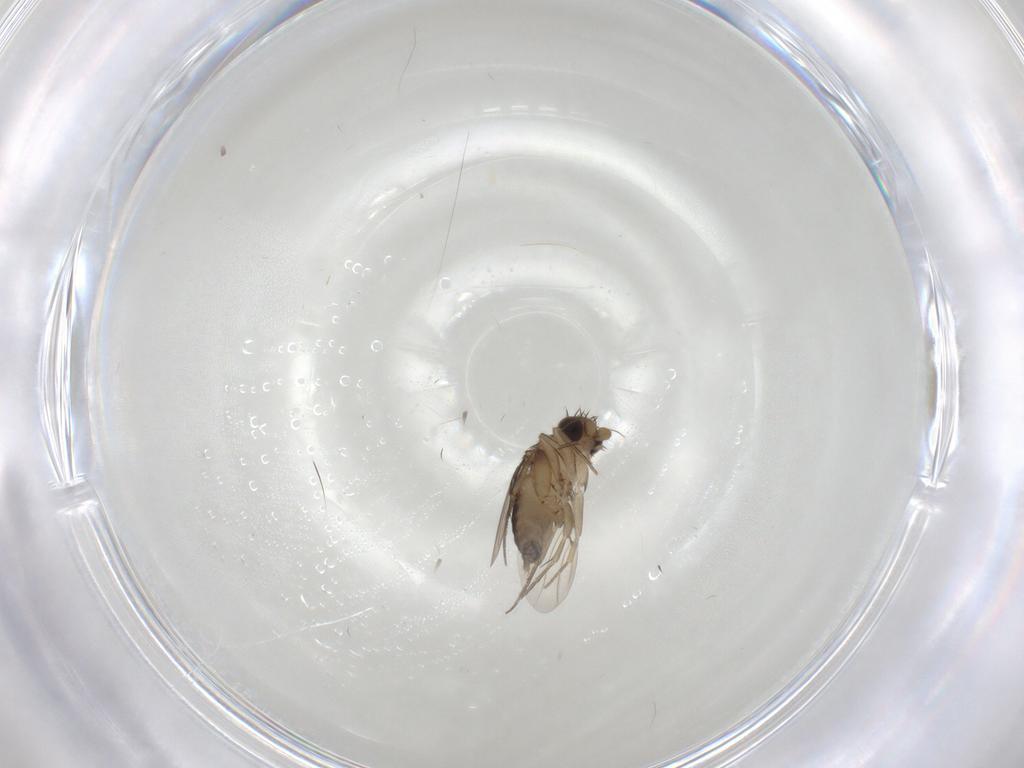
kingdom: Animalia
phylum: Arthropoda
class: Insecta
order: Diptera
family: Phoridae
